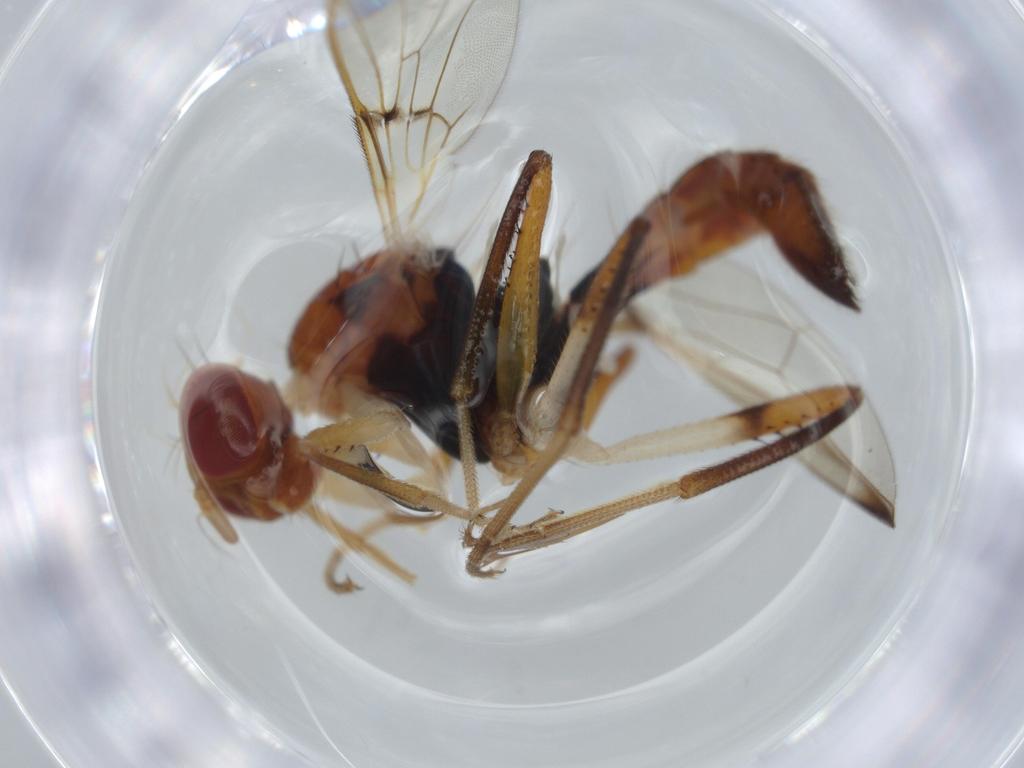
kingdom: Animalia
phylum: Arthropoda
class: Insecta
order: Diptera
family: Richardiidae
